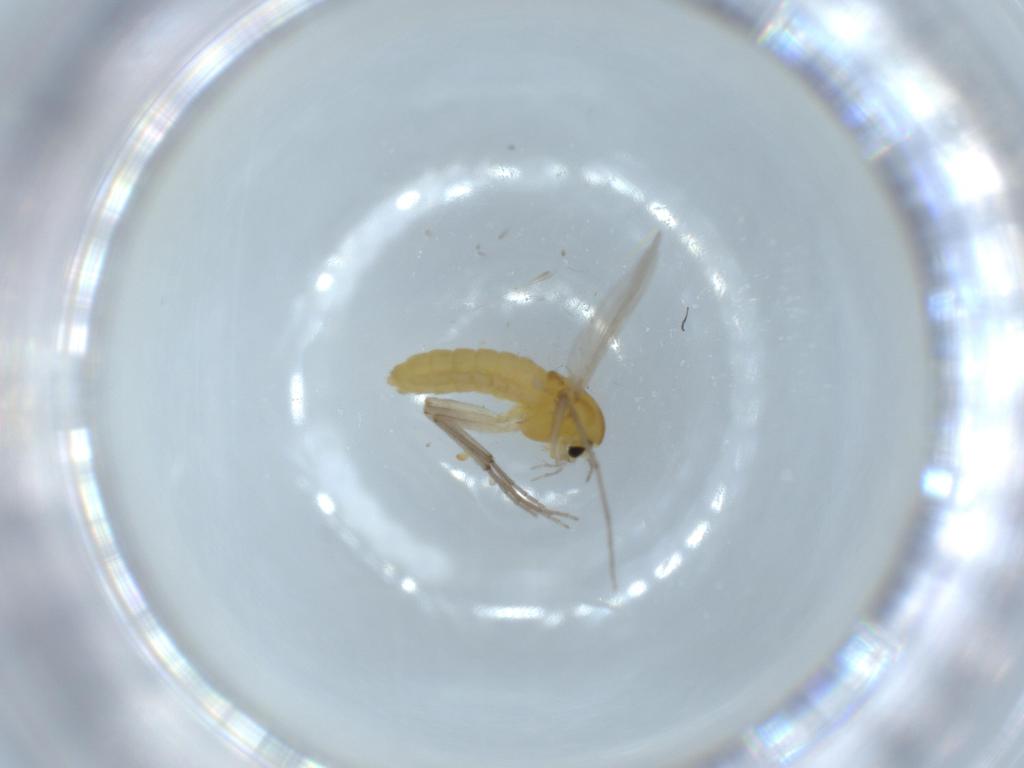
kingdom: Animalia
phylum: Arthropoda
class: Insecta
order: Diptera
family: Chironomidae
